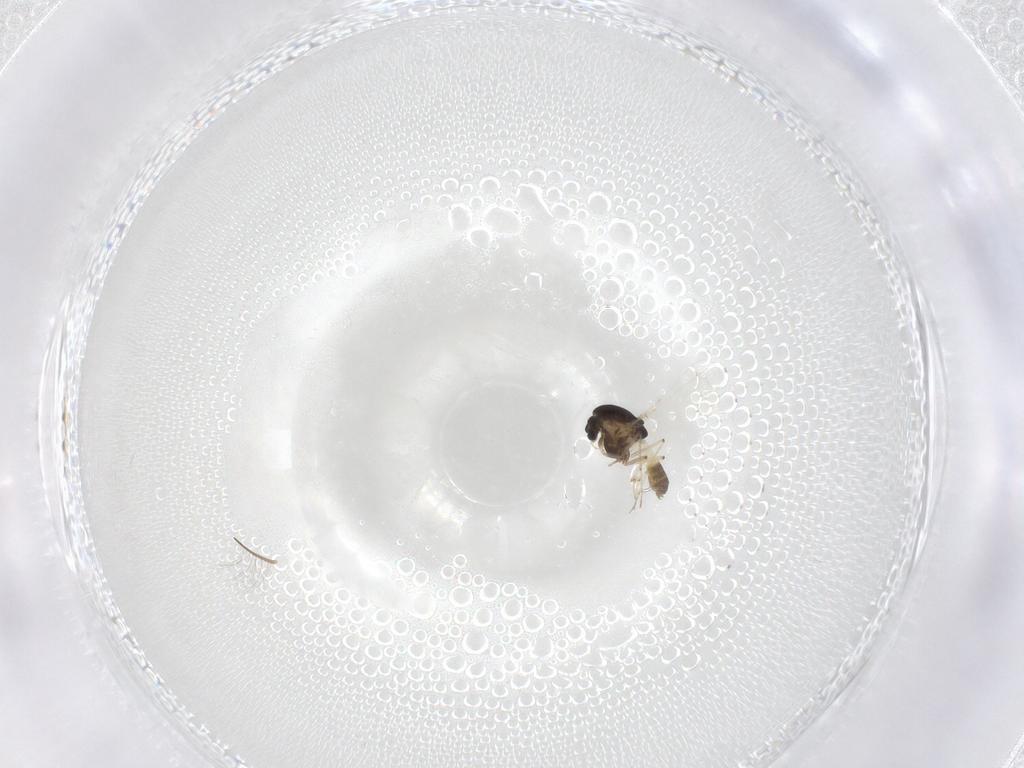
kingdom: Animalia
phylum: Arthropoda
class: Insecta
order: Diptera
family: Chironomidae
